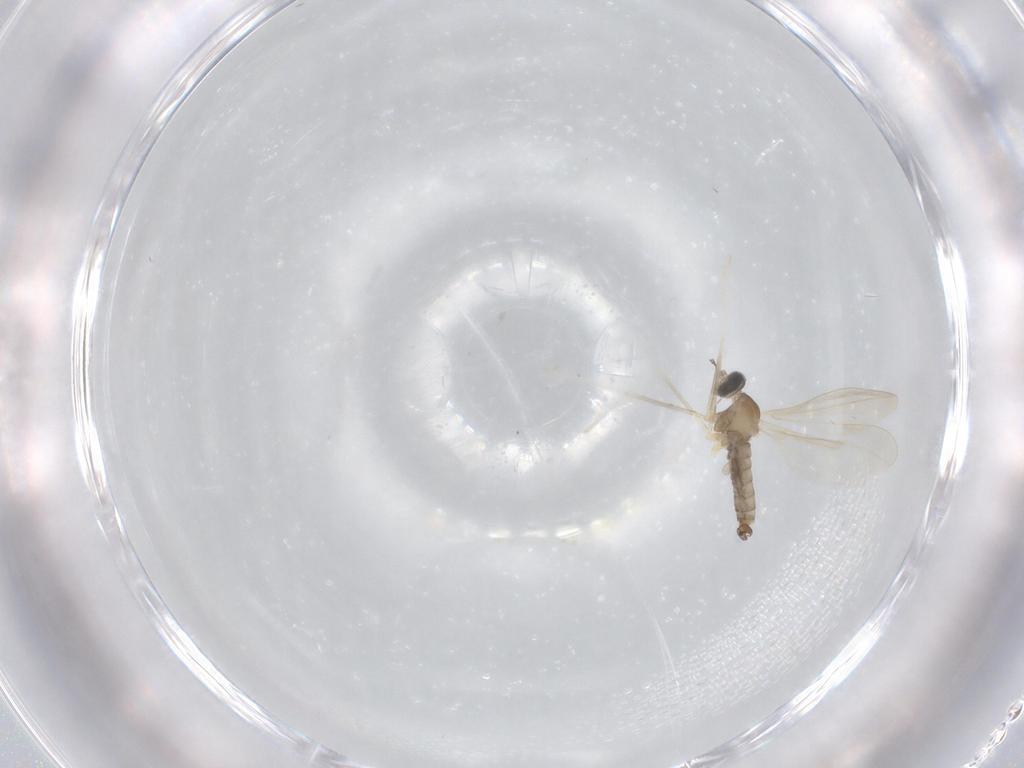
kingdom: Animalia
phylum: Arthropoda
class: Insecta
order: Diptera
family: Cecidomyiidae
